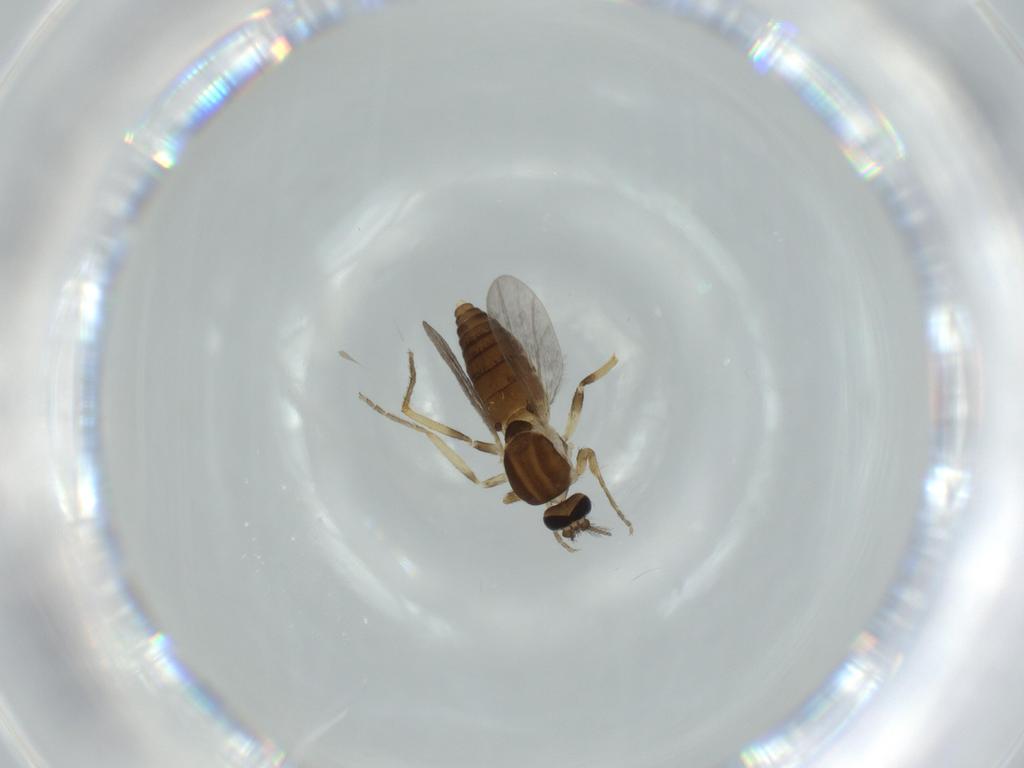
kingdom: Animalia
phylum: Arthropoda
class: Insecta
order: Diptera
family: Ceratopogonidae
